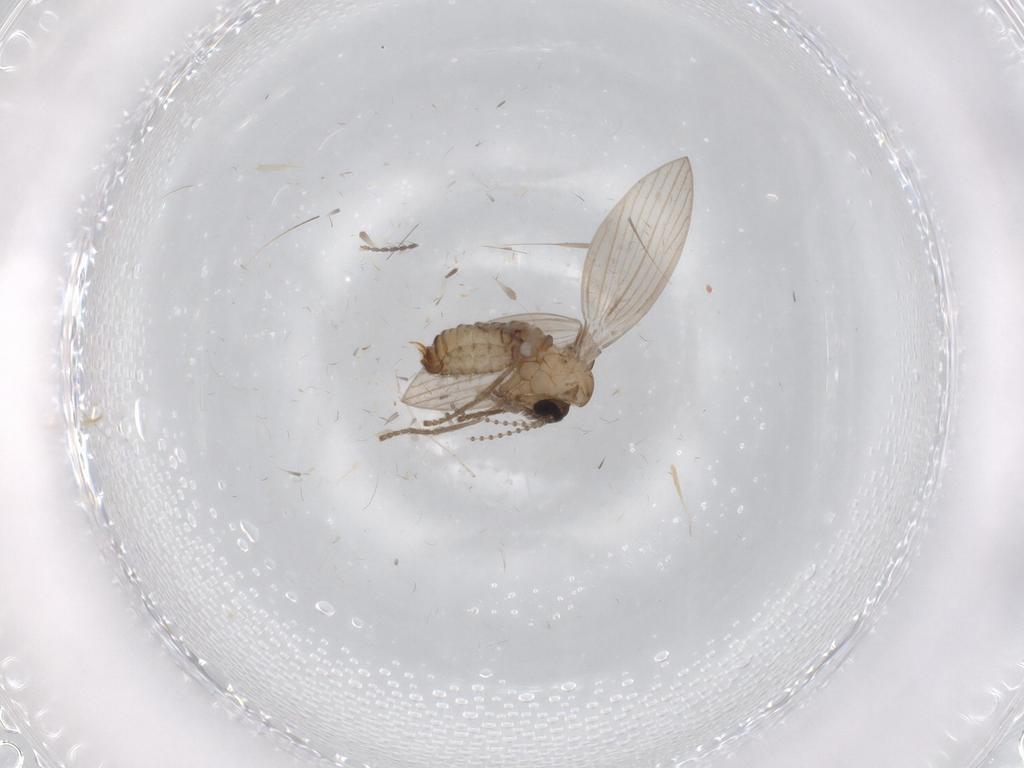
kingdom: Animalia
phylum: Arthropoda
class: Insecta
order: Diptera
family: Psychodidae
